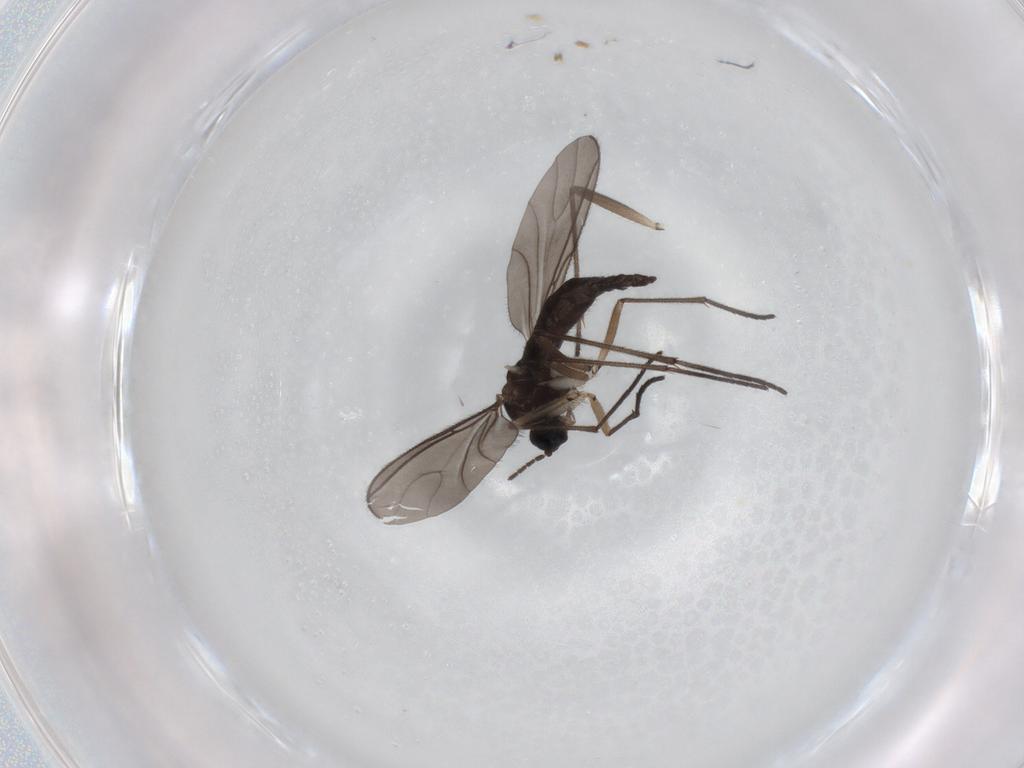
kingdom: Animalia
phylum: Arthropoda
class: Insecta
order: Diptera
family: Sciaridae
